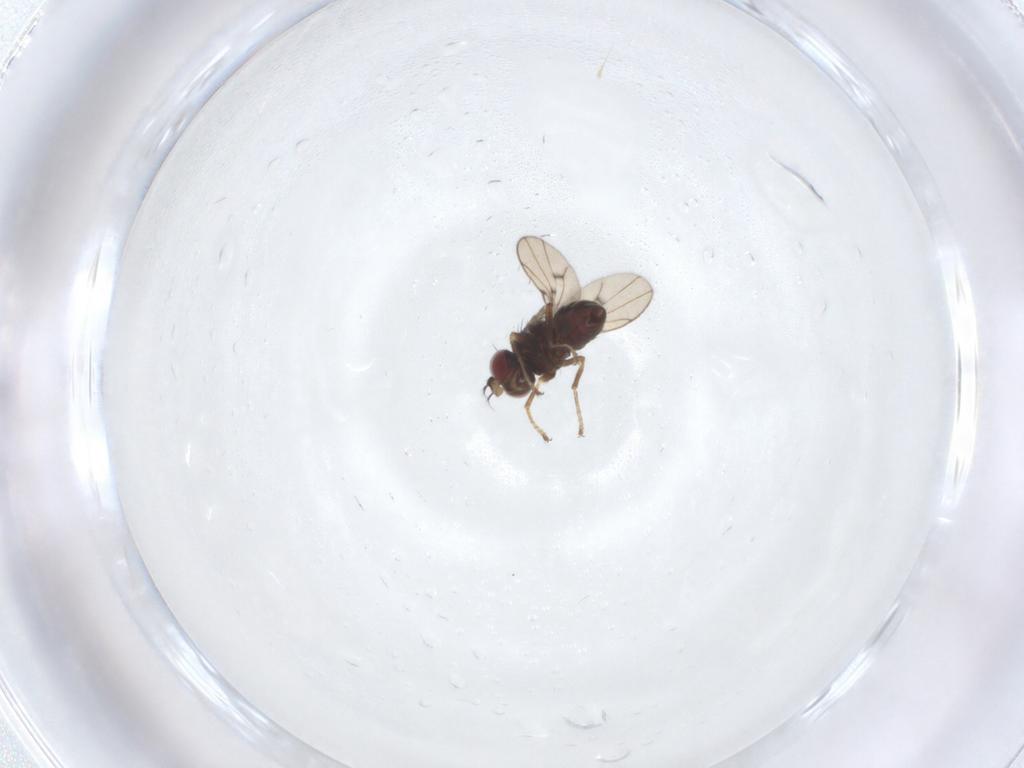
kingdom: Animalia
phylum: Arthropoda
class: Insecta
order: Diptera
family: Ephydridae
